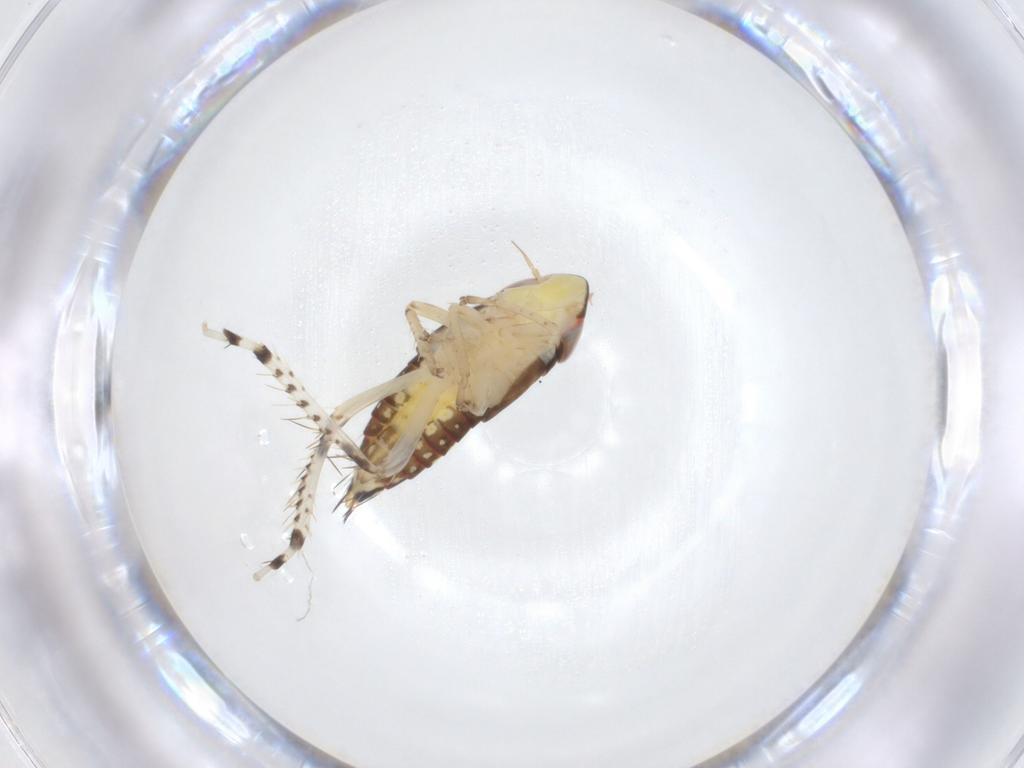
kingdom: Animalia
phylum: Arthropoda
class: Insecta
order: Hemiptera
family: Cicadellidae
